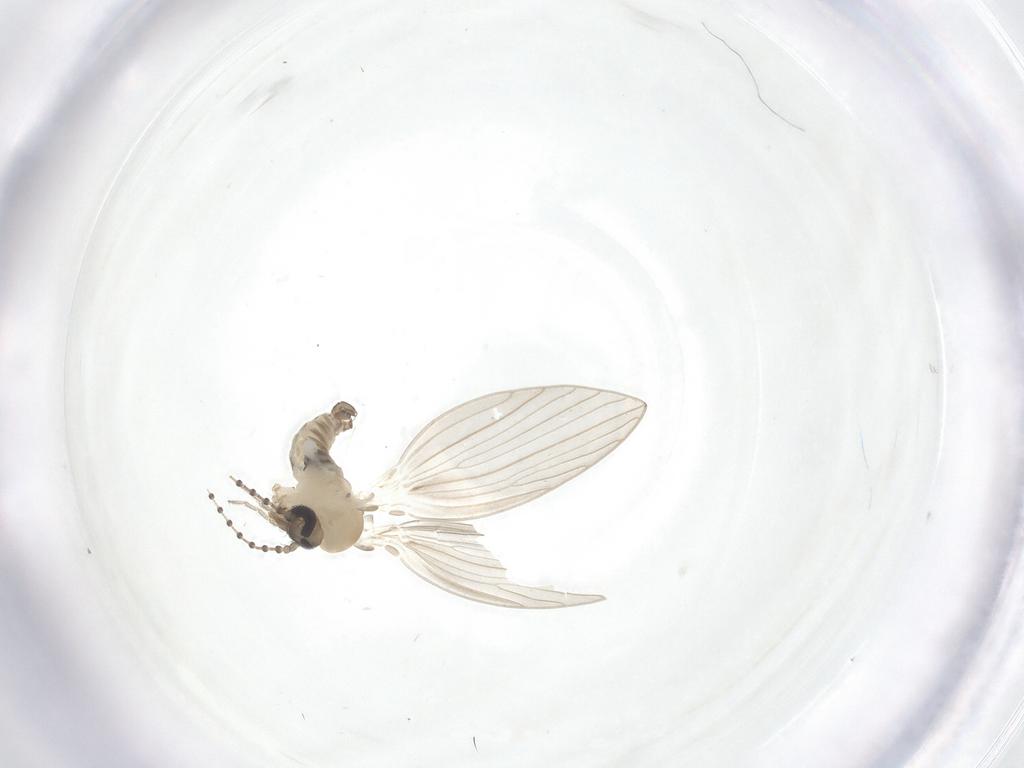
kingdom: Animalia
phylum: Arthropoda
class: Insecta
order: Diptera
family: Psychodidae
